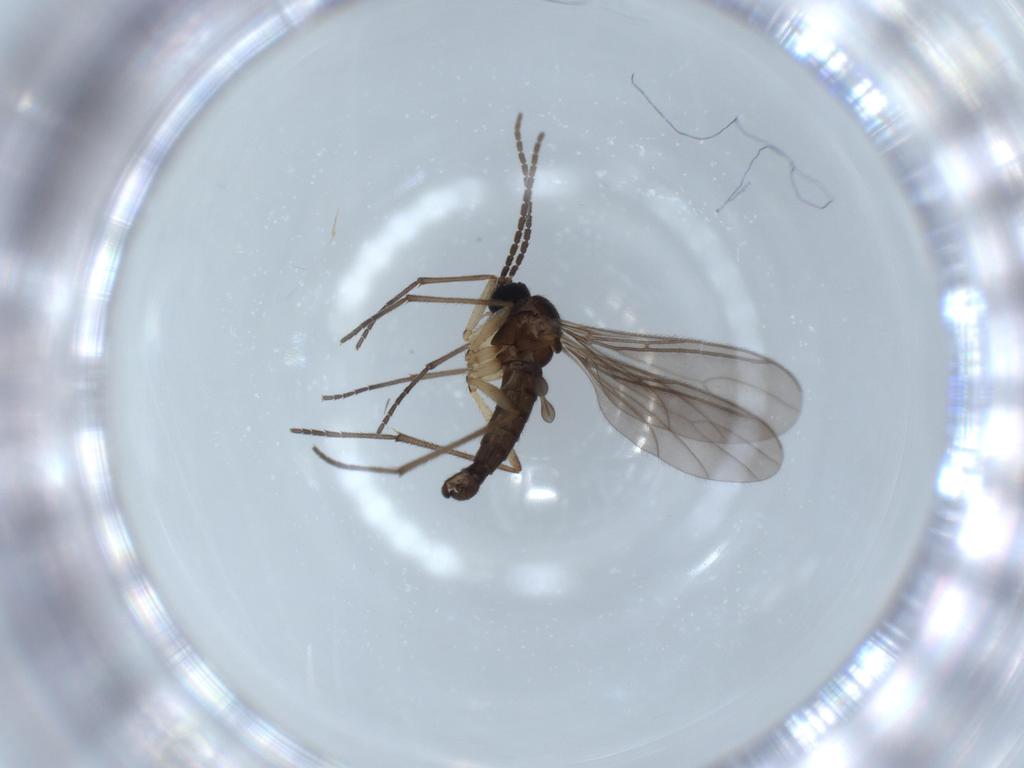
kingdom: Animalia
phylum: Arthropoda
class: Insecta
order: Diptera
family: Sciaridae
